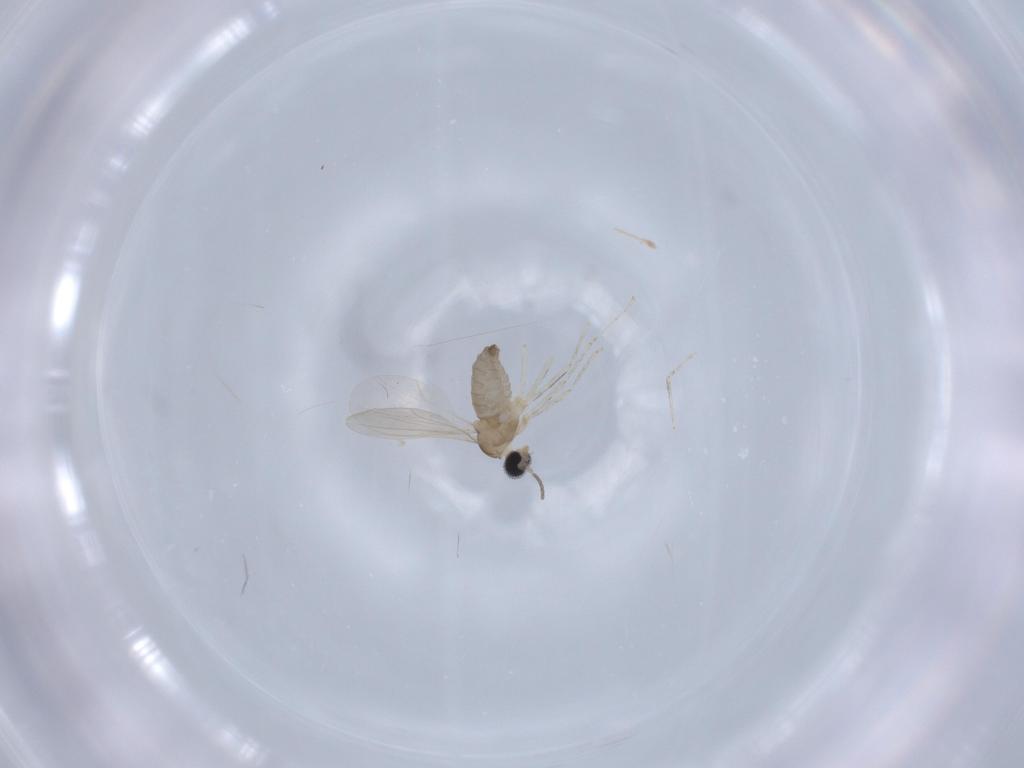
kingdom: Animalia
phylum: Arthropoda
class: Insecta
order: Diptera
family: Cecidomyiidae
